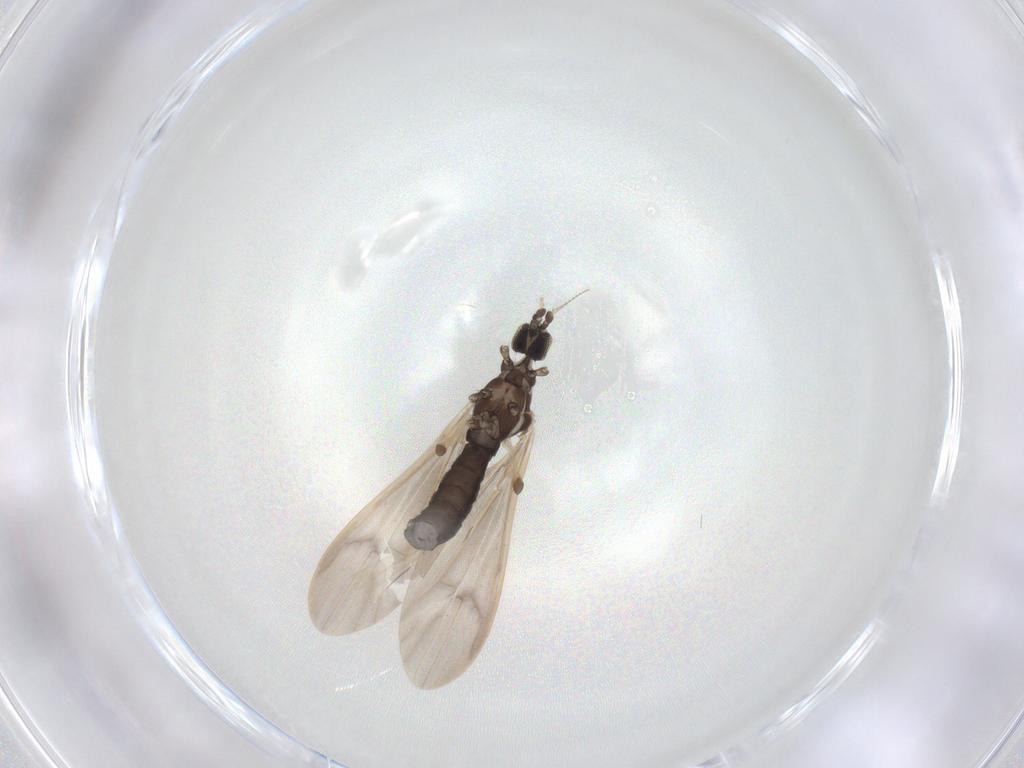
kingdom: Animalia
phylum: Arthropoda
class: Insecta
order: Diptera
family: Limoniidae
